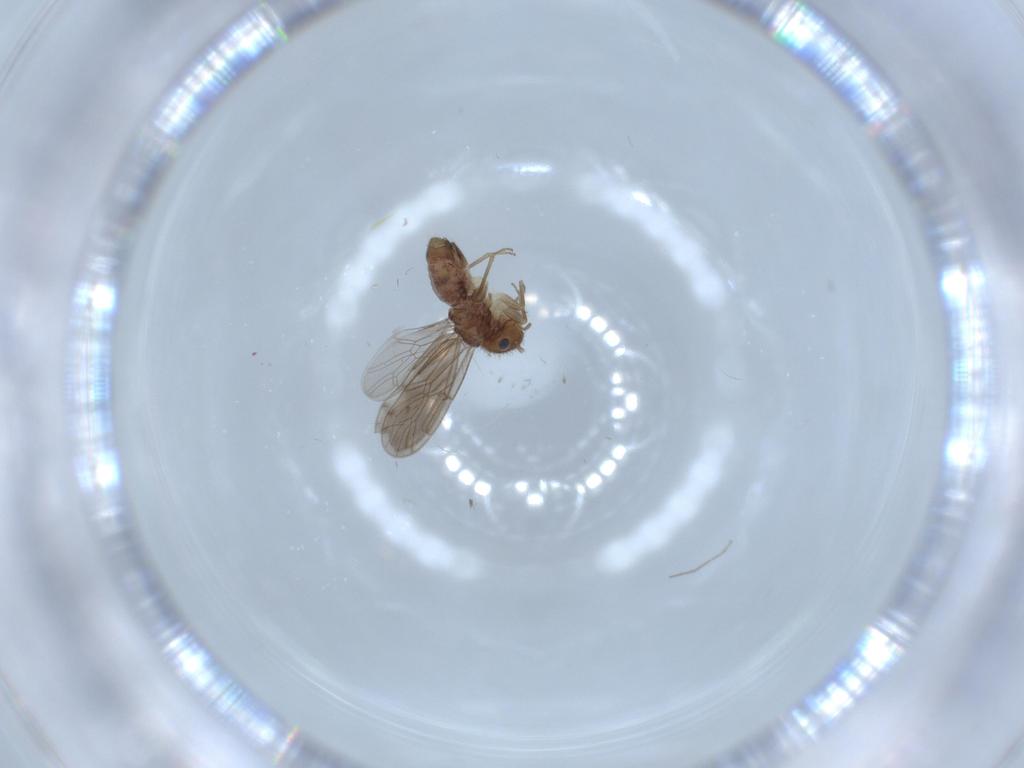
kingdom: Animalia
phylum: Arthropoda
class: Insecta
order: Psocodea
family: Ectopsocidae
